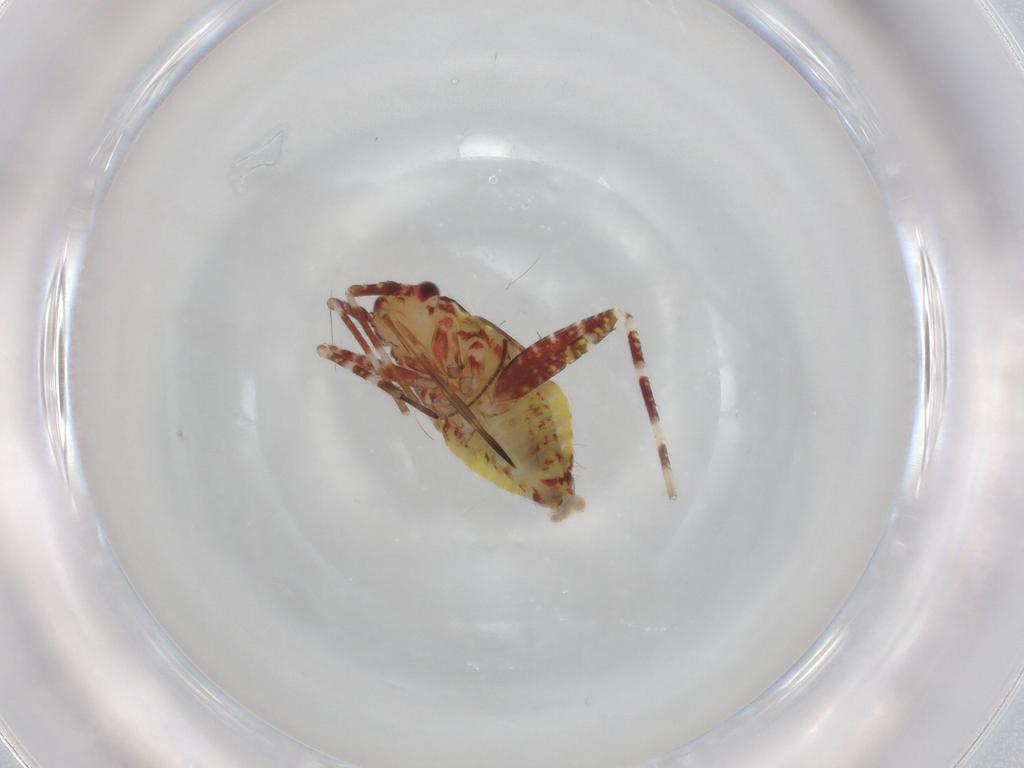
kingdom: Animalia
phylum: Arthropoda
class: Insecta
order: Hemiptera
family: Miridae
